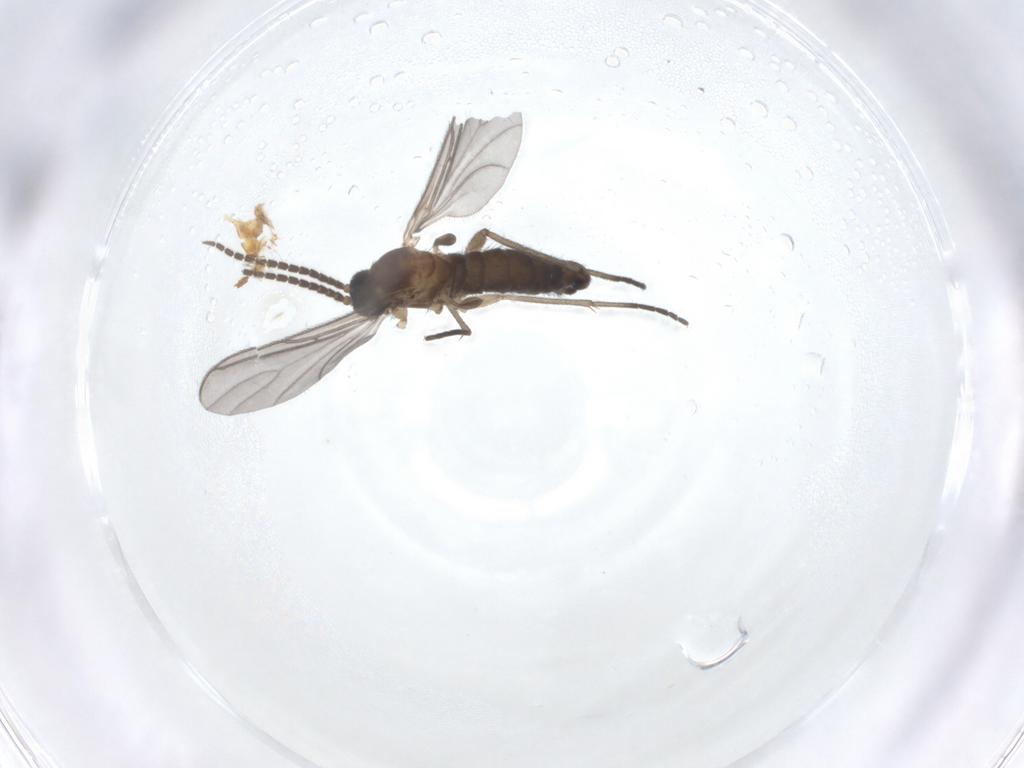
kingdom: Animalia
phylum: Arthropoda
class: Insecta
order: Diptera
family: Sciaridae
